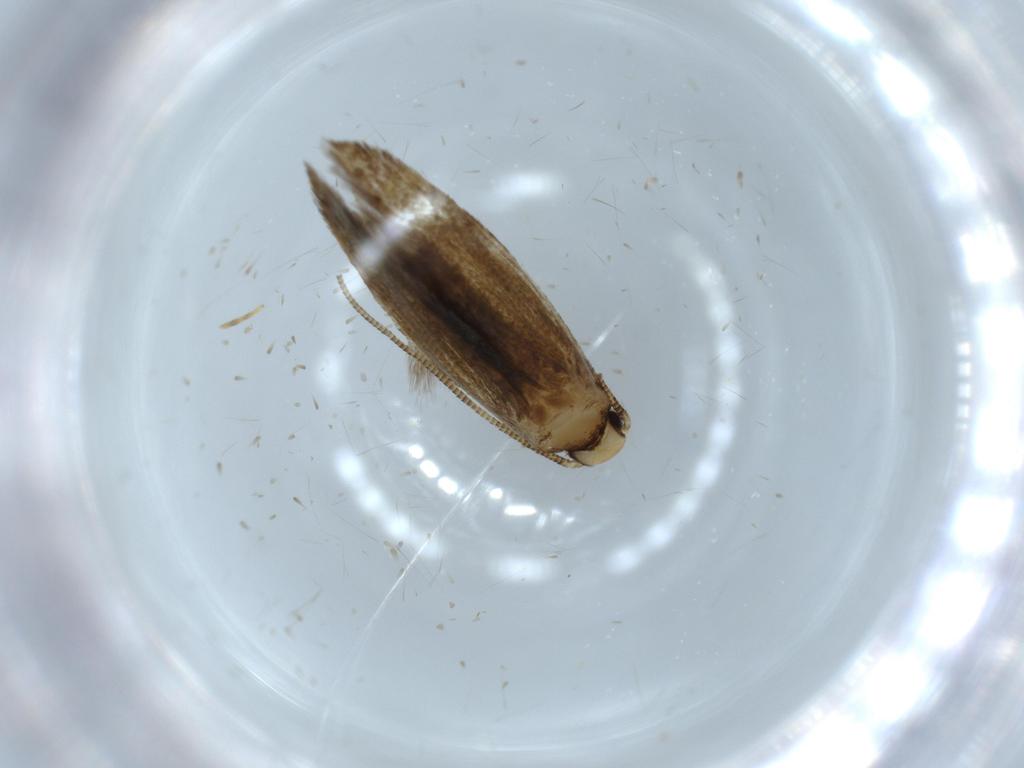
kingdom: Animalia
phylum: Arthropoda
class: Insecta
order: Lepidoptera
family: Tineidae
